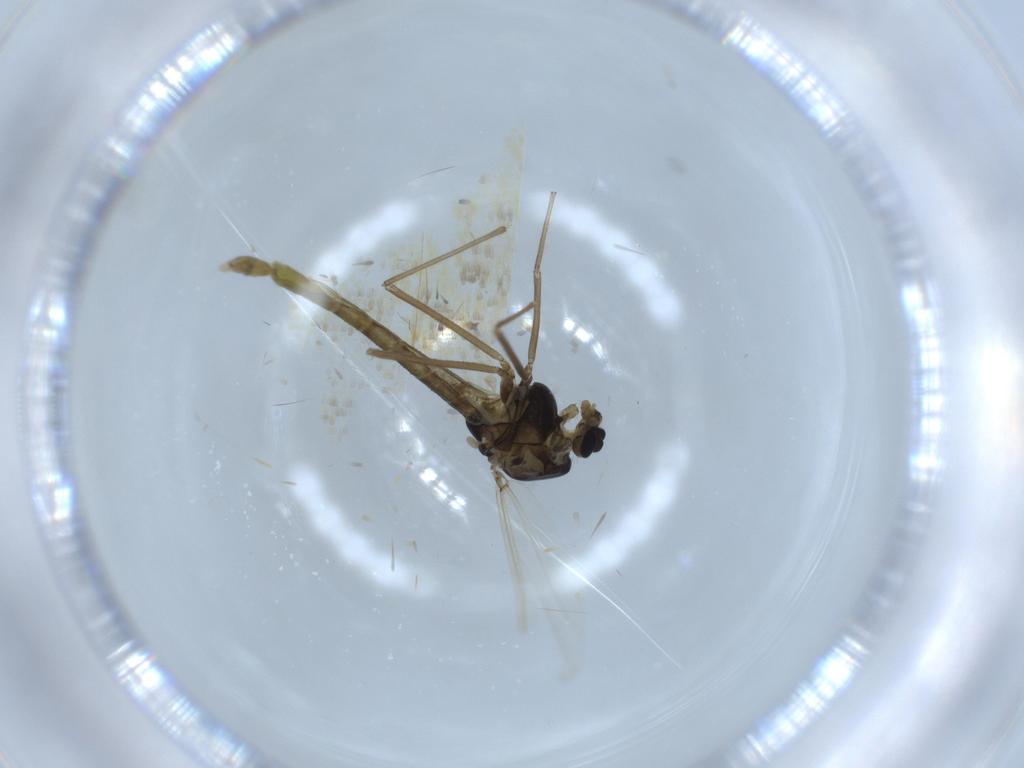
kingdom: Animalia
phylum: Arthropoda
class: Insecta
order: Diptera
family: Chironomidae
